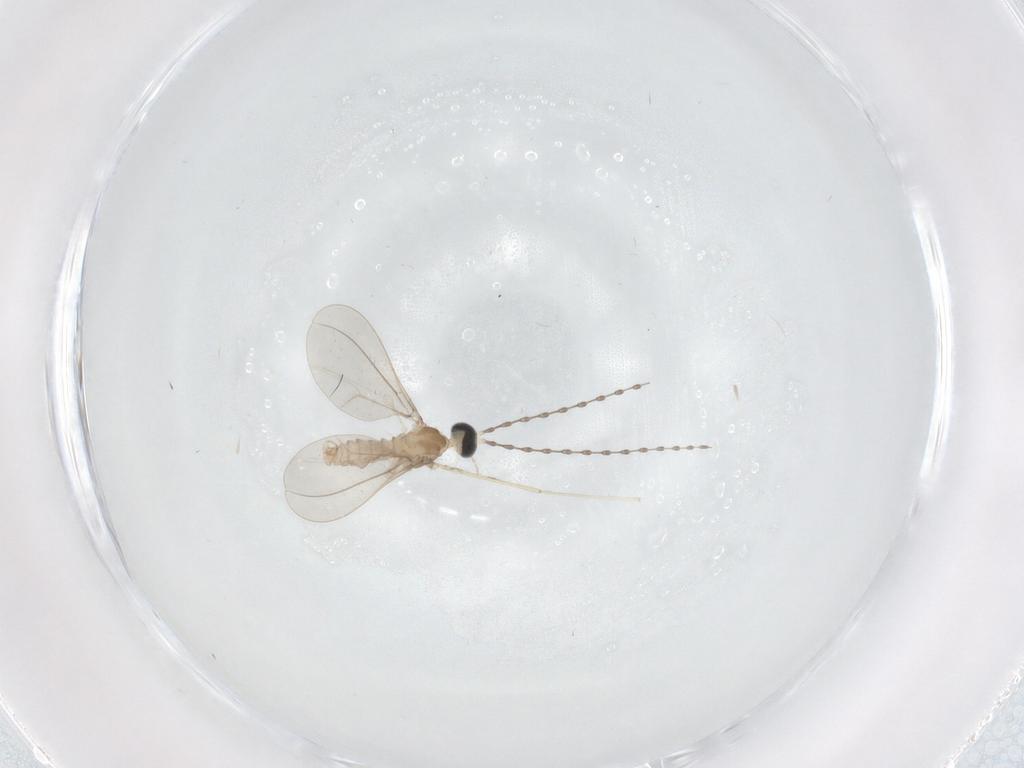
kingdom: Animalia
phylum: Arthropoda
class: Insecta
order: Diptera
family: Cecidomyiidae
